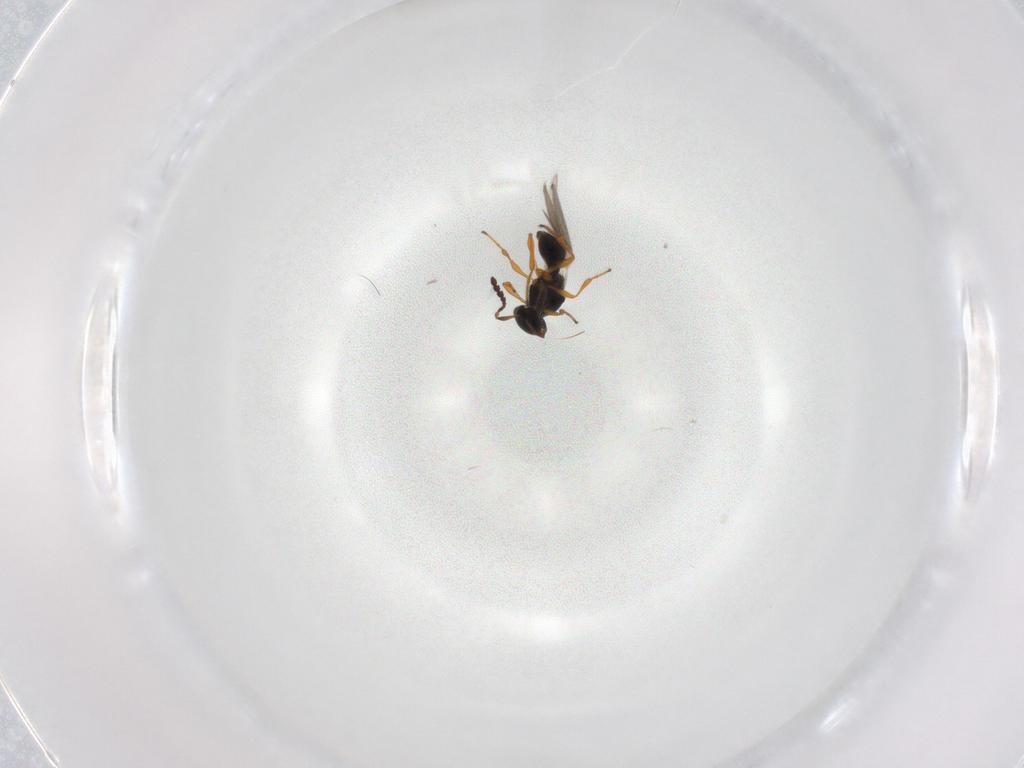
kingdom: Animalia
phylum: Arthropoda
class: Insecta
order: Hymenoptera
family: Platygastridae
